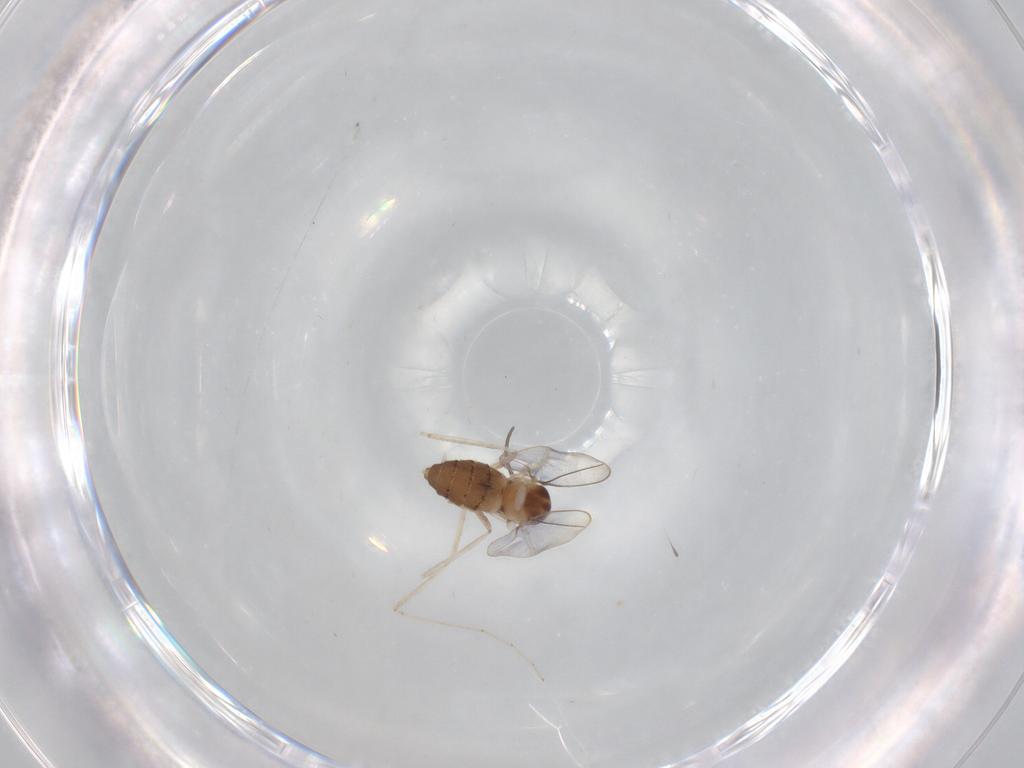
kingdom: Animalia
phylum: Arthropoda
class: Insecta
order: Diptera
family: Cecidomyiidae
